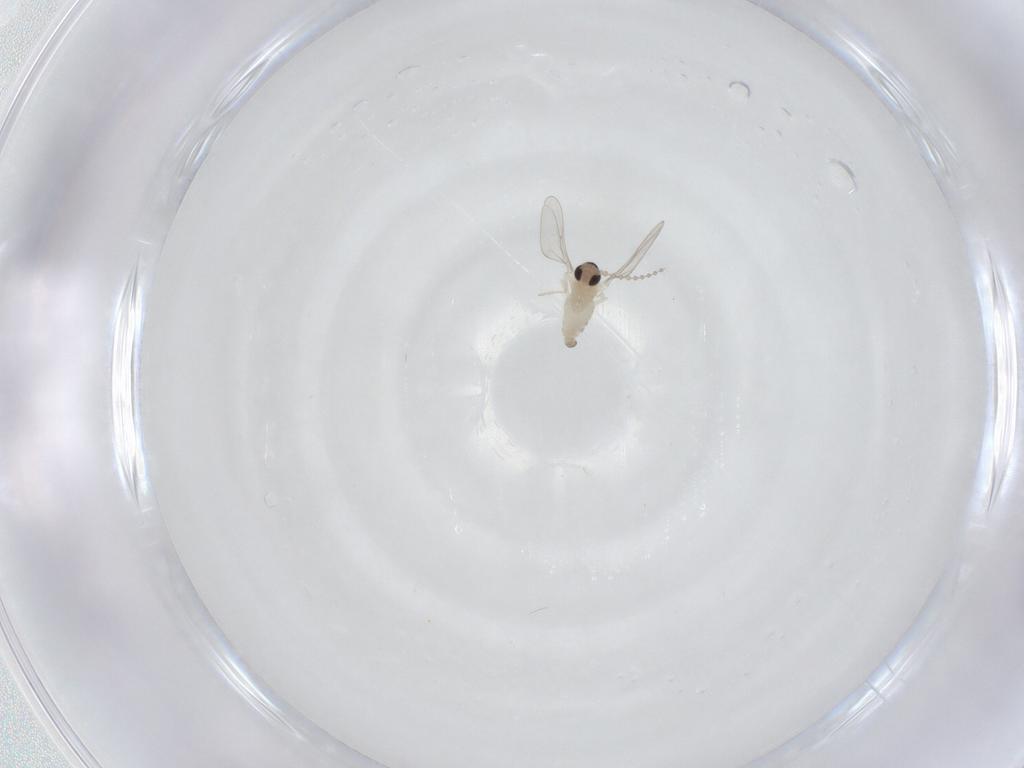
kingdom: Animalia
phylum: Arthropoda
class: Insecta
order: Diptera
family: Cecidomyiidae
